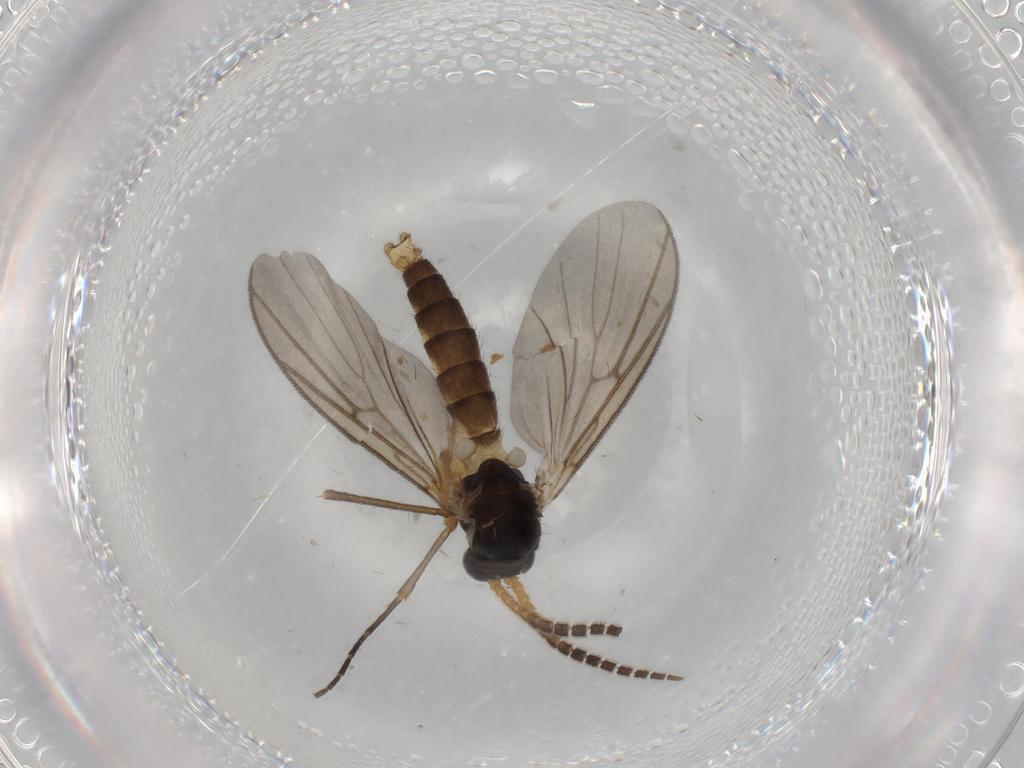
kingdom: Animalia
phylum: Arthropoda
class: Insecta
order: Diptera
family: Mycetophilidae
